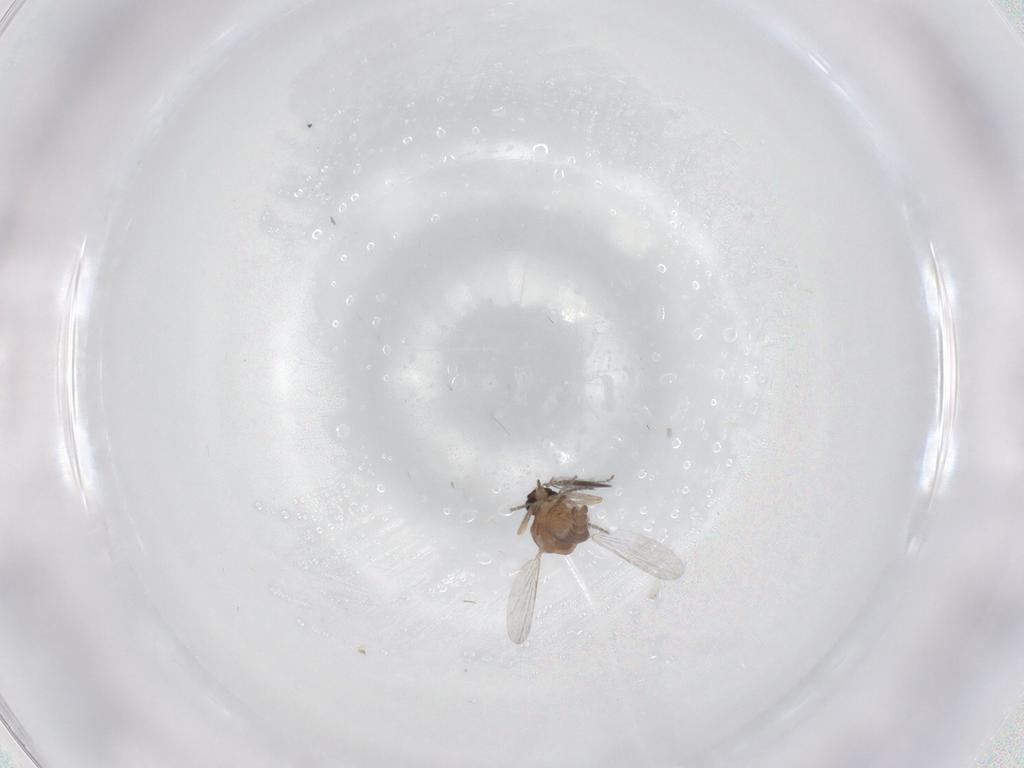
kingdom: Animalia
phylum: Arthropoda
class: Insecta
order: Diptera
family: Ceratopogonidae
